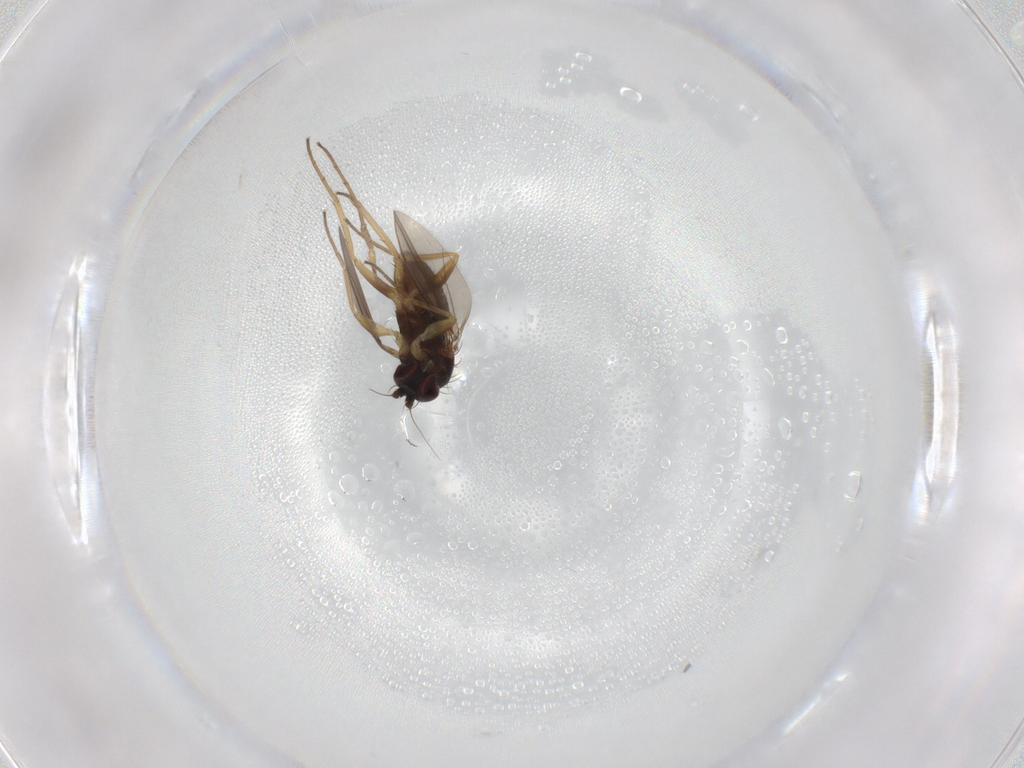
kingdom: Animalia
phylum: Arthropoda
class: Insecta
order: Diptera
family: Dolichopodidae
